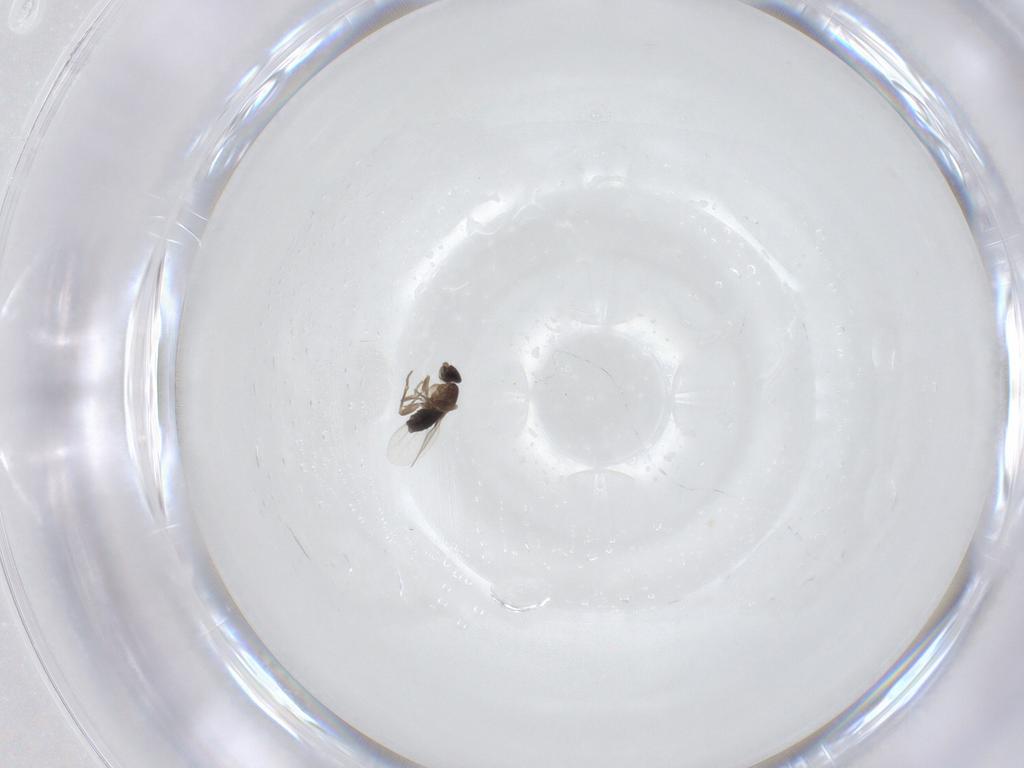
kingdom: Animalia
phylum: Arthropoda
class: Insecta
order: Diptera
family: Phoridae
